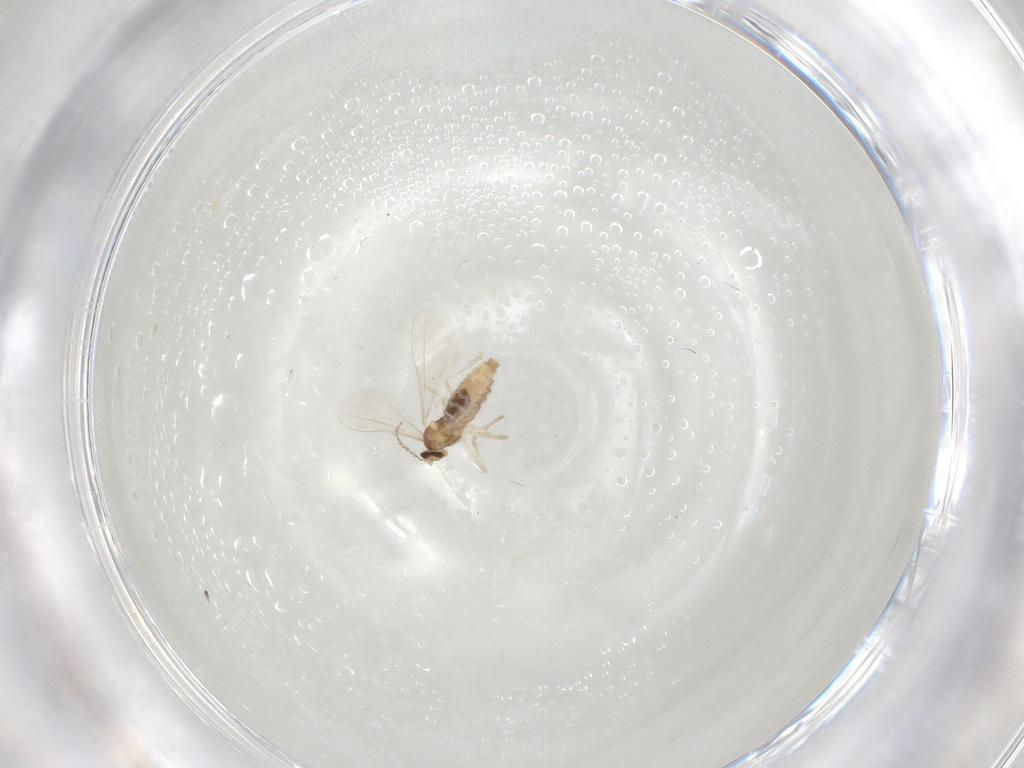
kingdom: Animalia
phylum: Arthropoda
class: Insecta
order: Diptera
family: Cecidomyiidae
